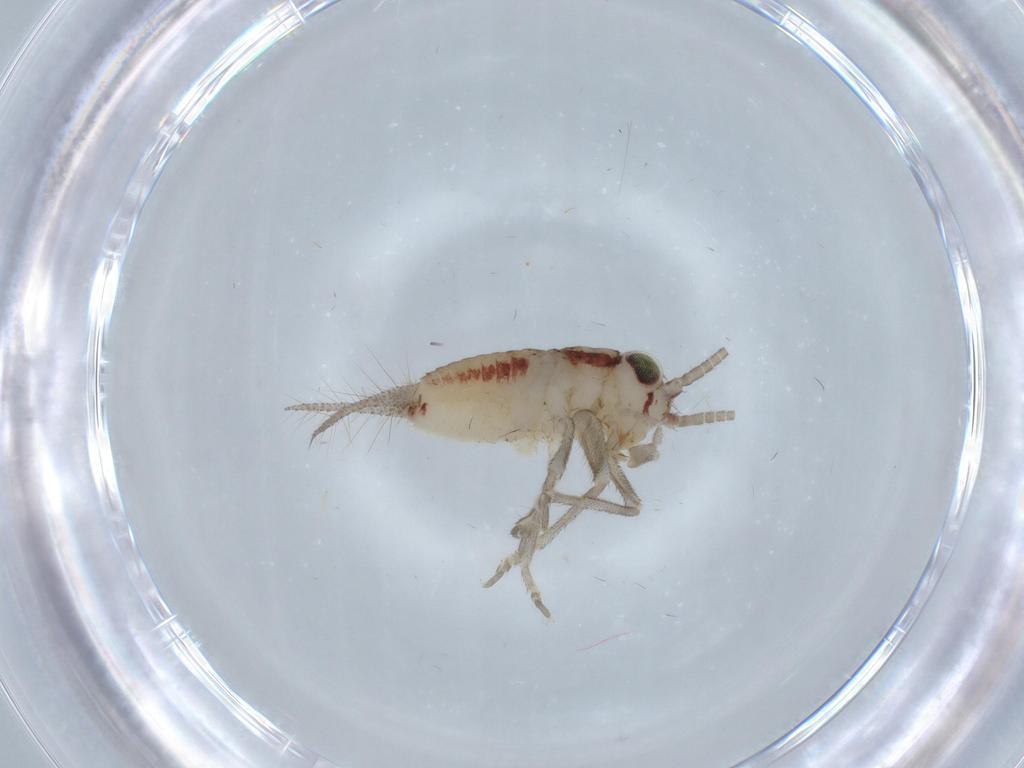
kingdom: Animalia
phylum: Arthropoda
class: Insecta
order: Orthoptera
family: Trigonidiidae
